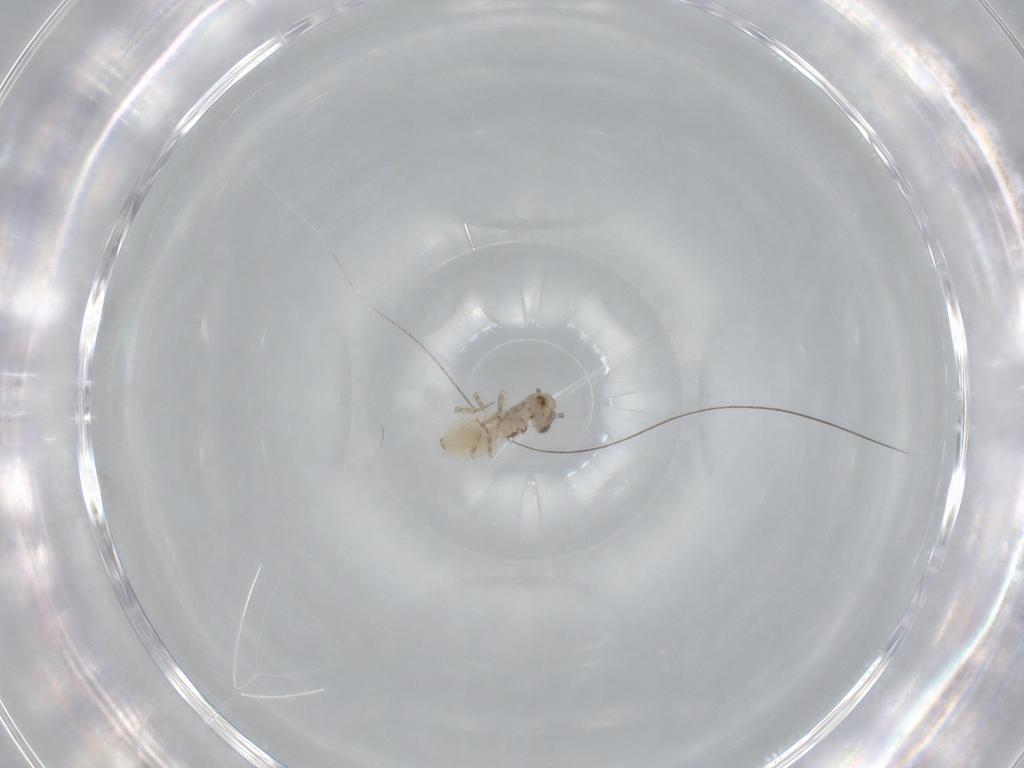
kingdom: Animalia
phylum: Arthropoda
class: Insecta
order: Psocodea
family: Lepidopsocidae
